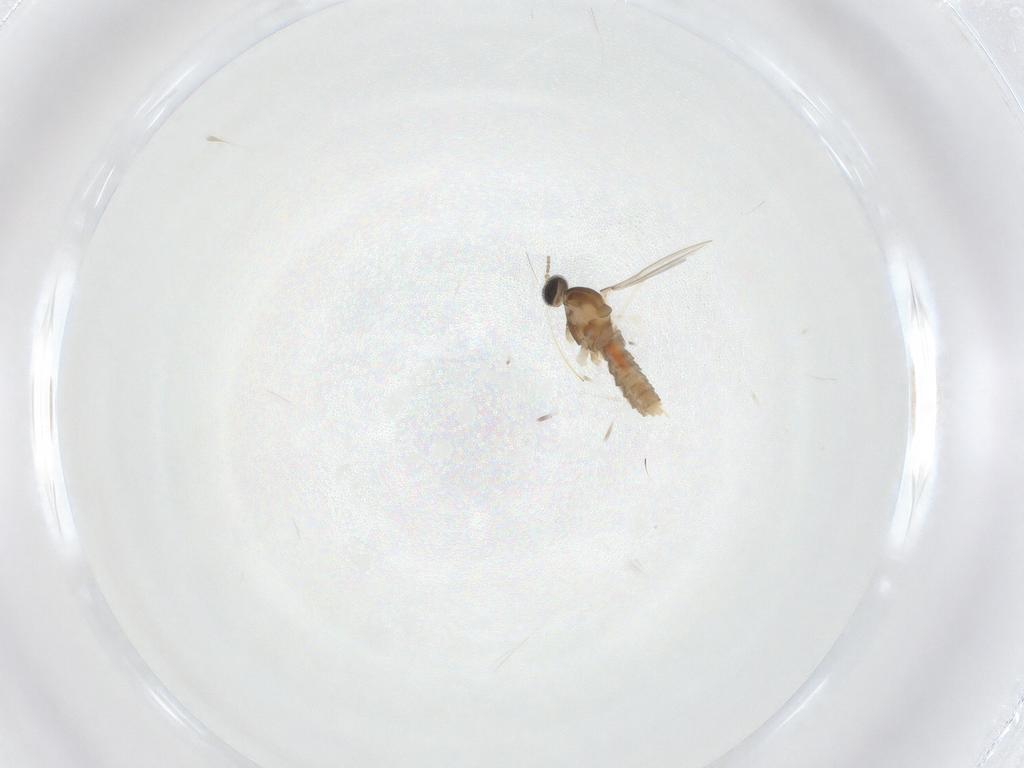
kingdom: Animalia
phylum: Arthropoda
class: Insecta
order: Diptera
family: Cecidomyiidae
